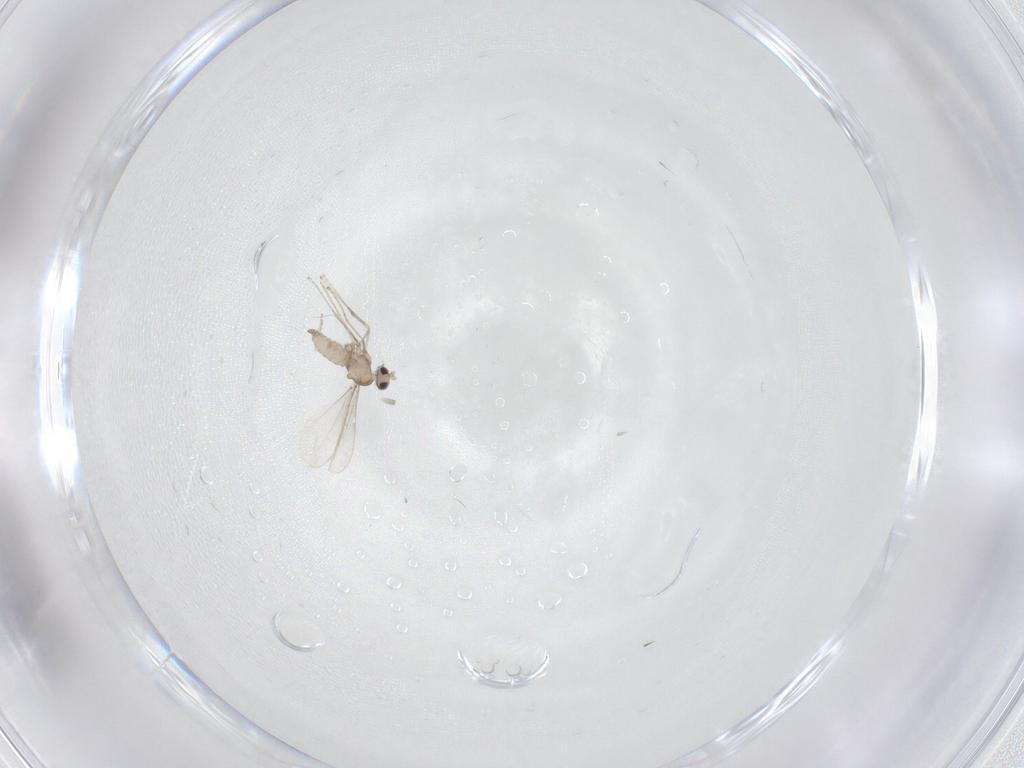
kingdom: Animalia
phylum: Arthropoda
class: Insecta
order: Diptera
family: Cecidomyiidae
